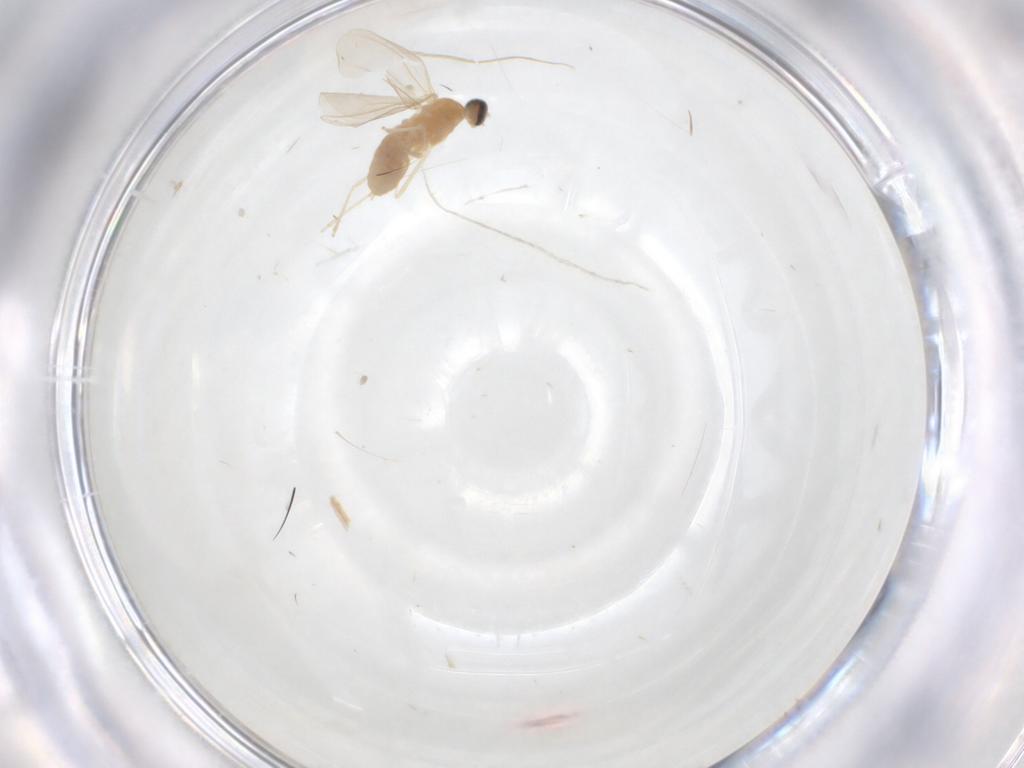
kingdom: Animalia
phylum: Arthropoda
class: Insecta
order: Diptera
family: Cecidomyiidae
